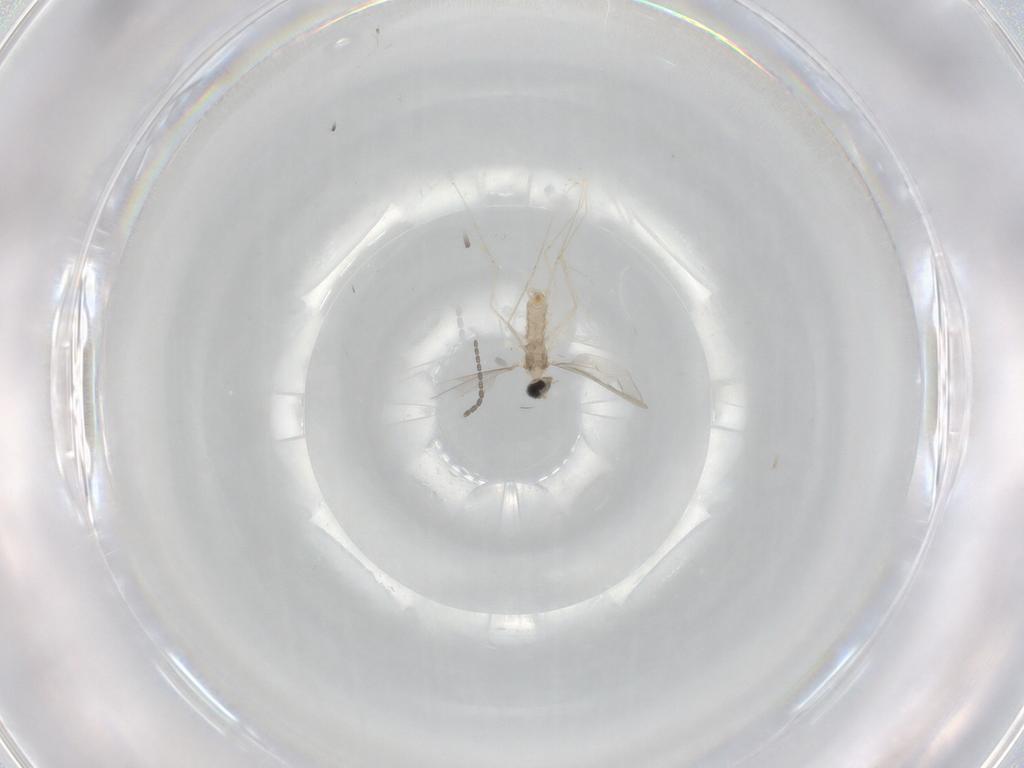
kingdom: Animalia
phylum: Arthropoda
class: Insecta
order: Diptera
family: Cecidomyiidae
